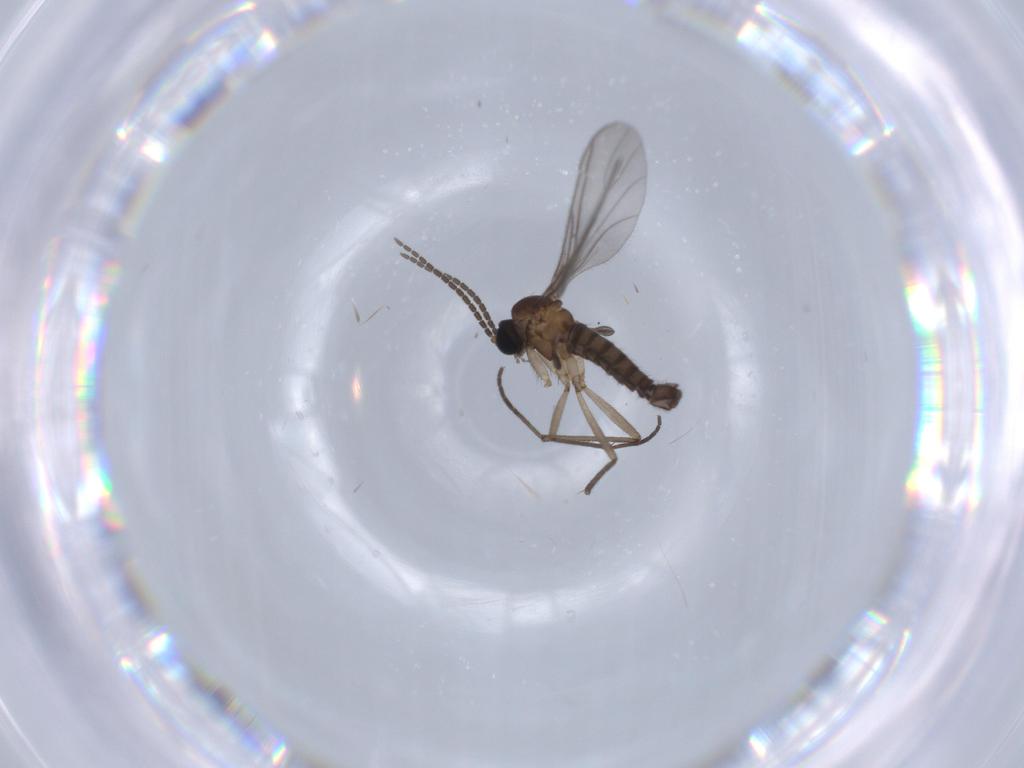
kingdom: Animalia
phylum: Arthropoda
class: Insecta
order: Diptera
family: Sciaridae
